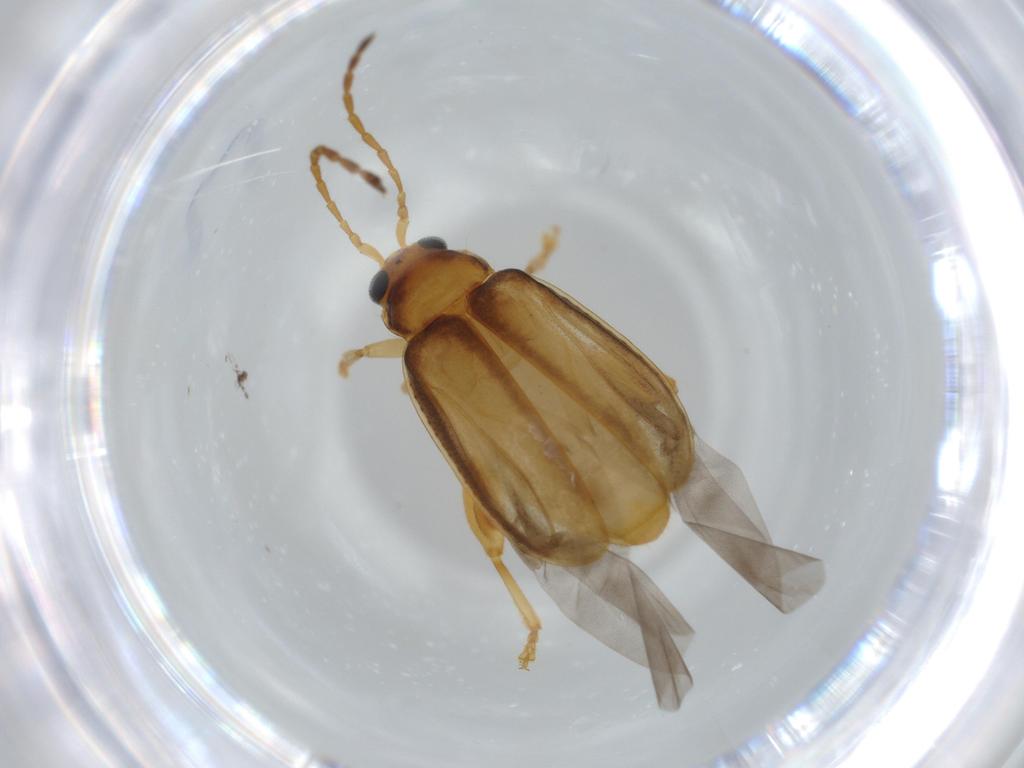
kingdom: Animalia
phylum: Arthropoda
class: Insecta
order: Coleoptera
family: Chrysomelidae
